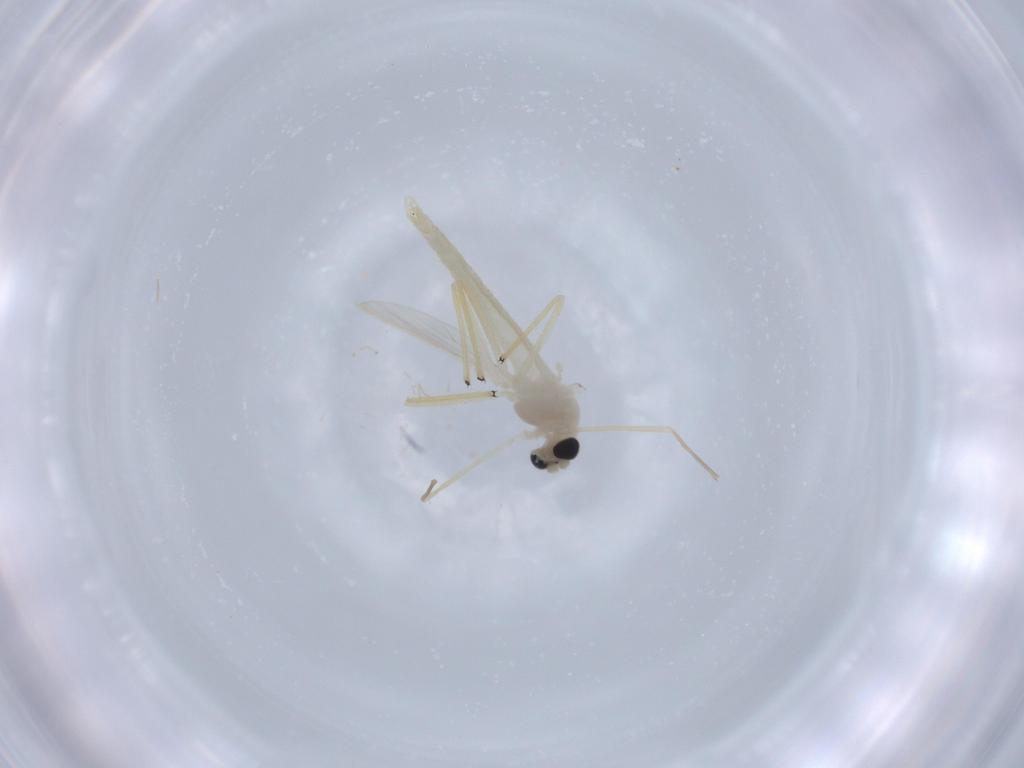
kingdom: Animalia
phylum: Arthropoda
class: Insecta
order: Diptera
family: Chironomidae
